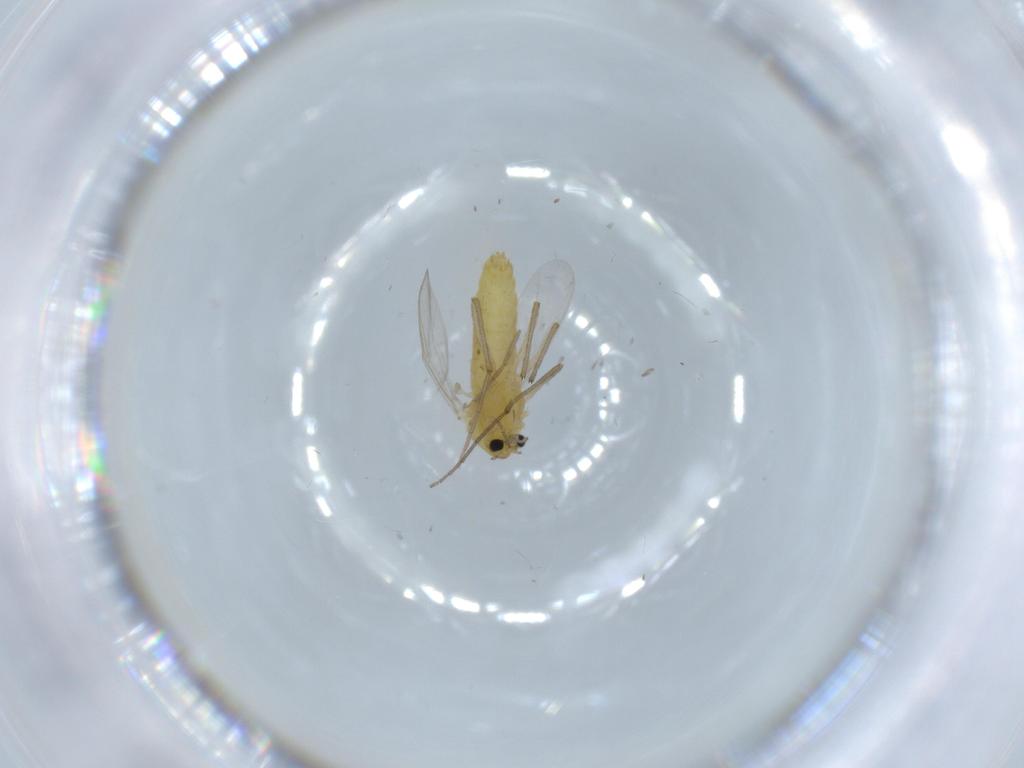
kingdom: Animalia
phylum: Arthropoda
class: Insecta
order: Diptera
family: Chironomidae
